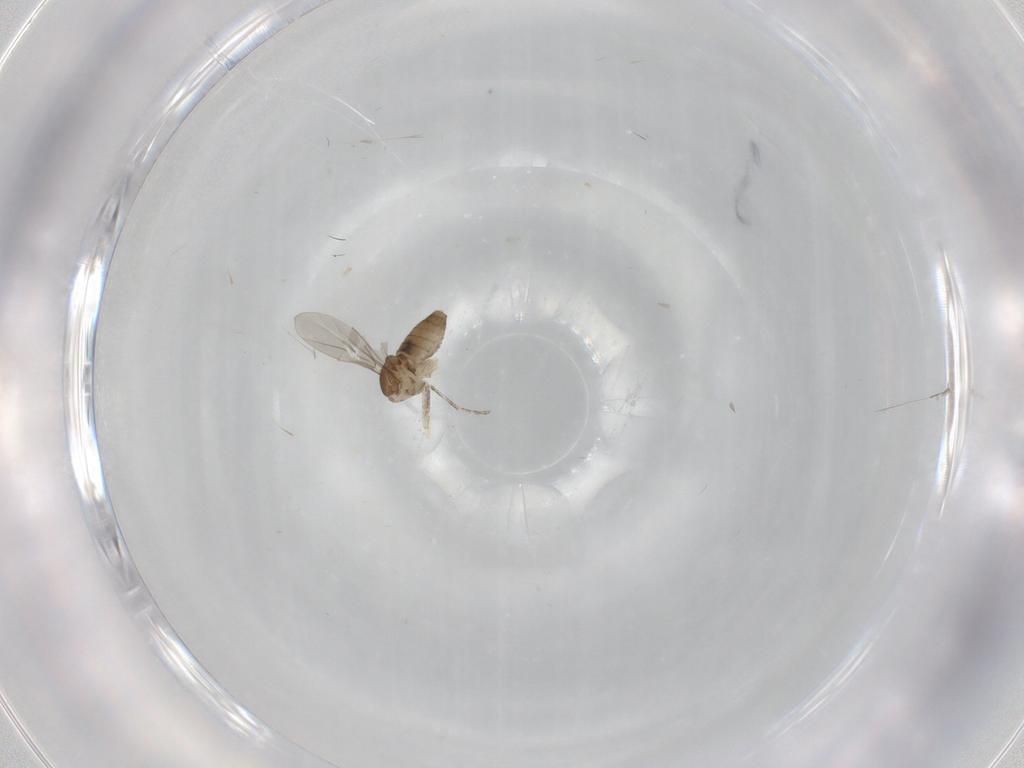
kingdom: Animalia
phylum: Arthropoda
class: Insecta
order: Diptera
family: Cecidomyiidae
